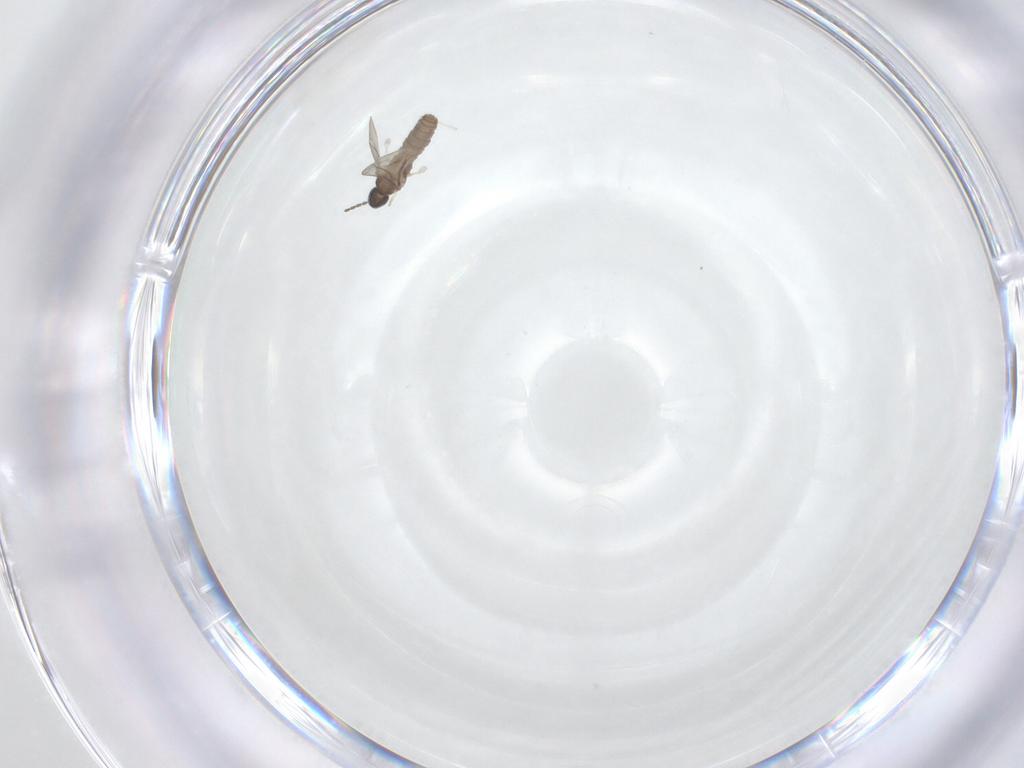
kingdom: Animalia
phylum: Arthropoda
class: Insecta
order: Diptera
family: Cecidomyiidae
